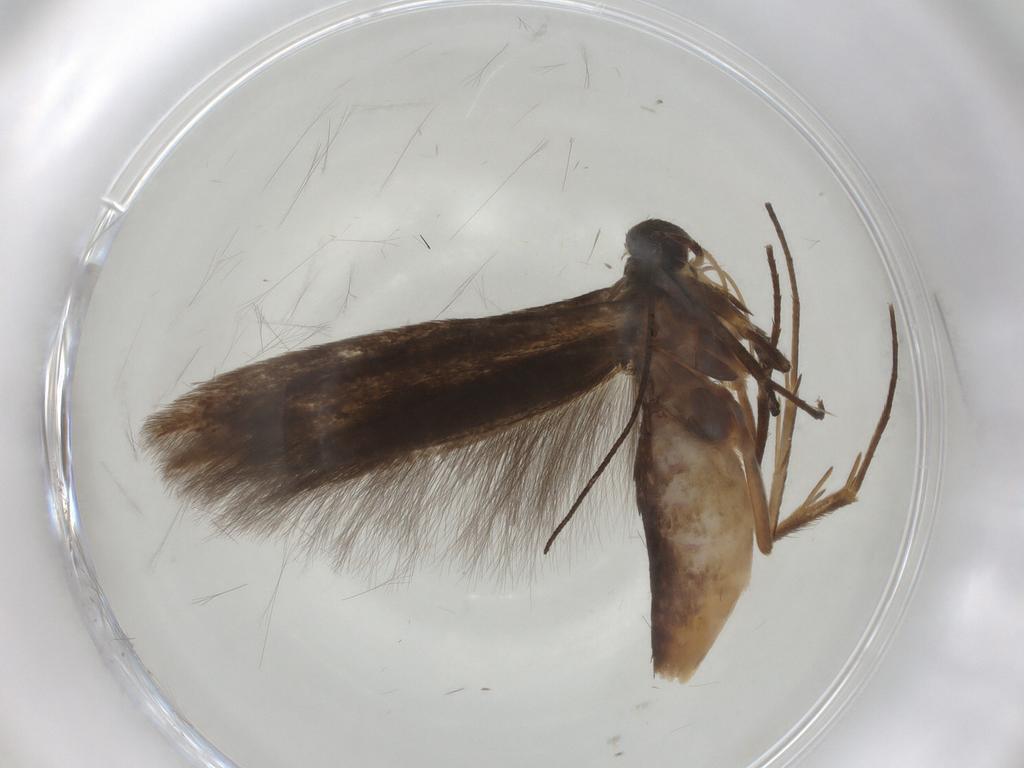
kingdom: Animalia
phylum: Arthropoda
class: Insecta
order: Lepidoptera
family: Scythrididae
